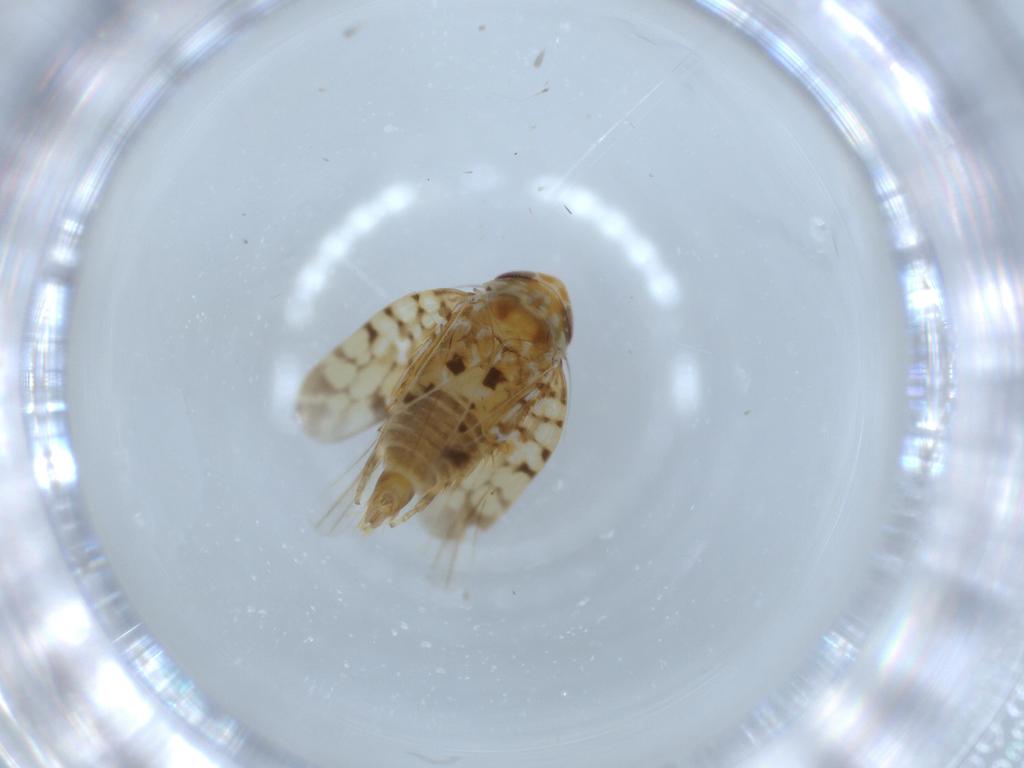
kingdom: Animalia
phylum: Arthropoda
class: Insecta
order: Hemiptera
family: Cicadellidae
